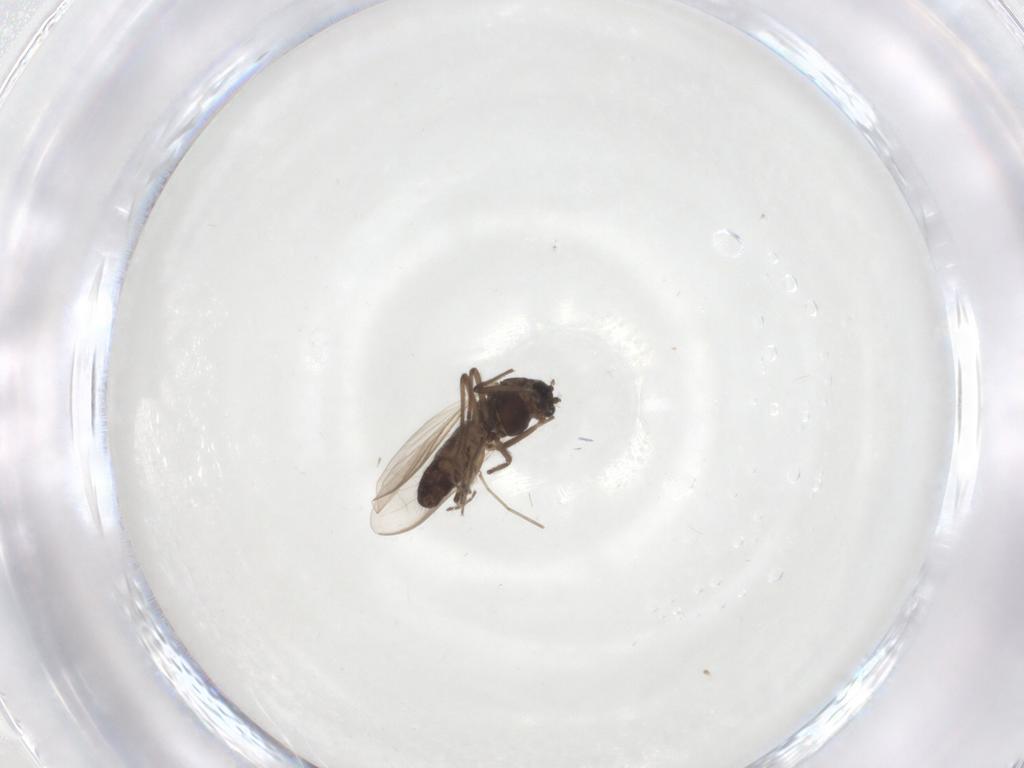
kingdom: Animalia
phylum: Arthropoda
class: Insecta
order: Diptera
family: Chironomidae
